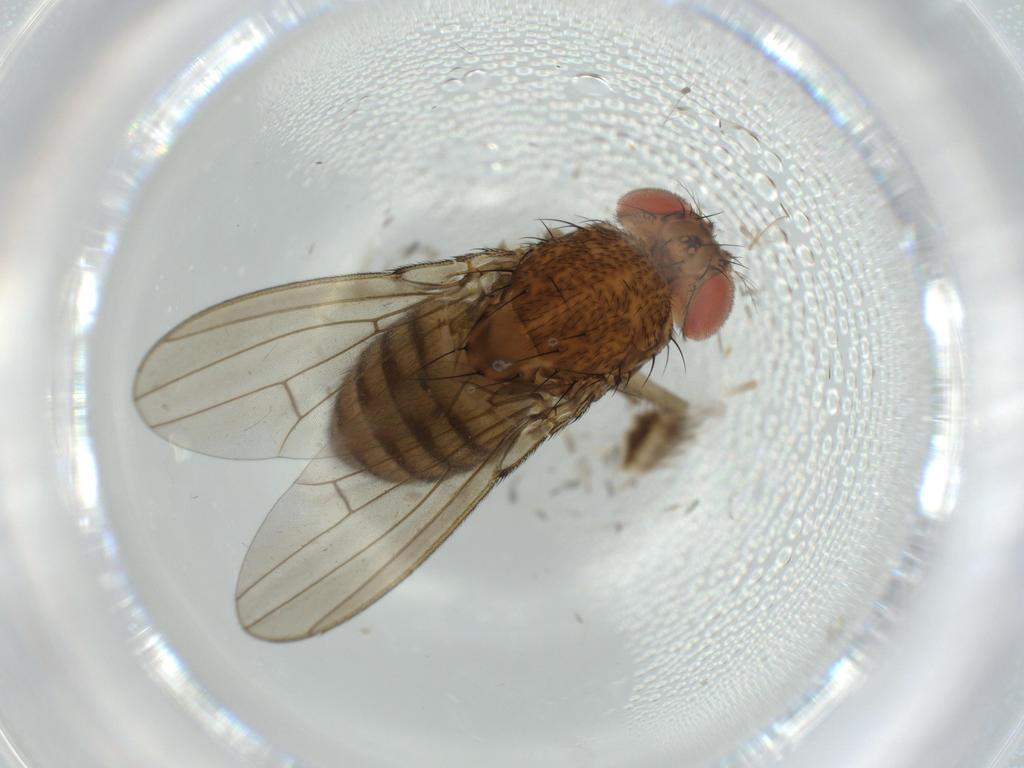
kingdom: Animalia
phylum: Arthropoda
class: Insecta
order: Diptera
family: Drosophilidae
